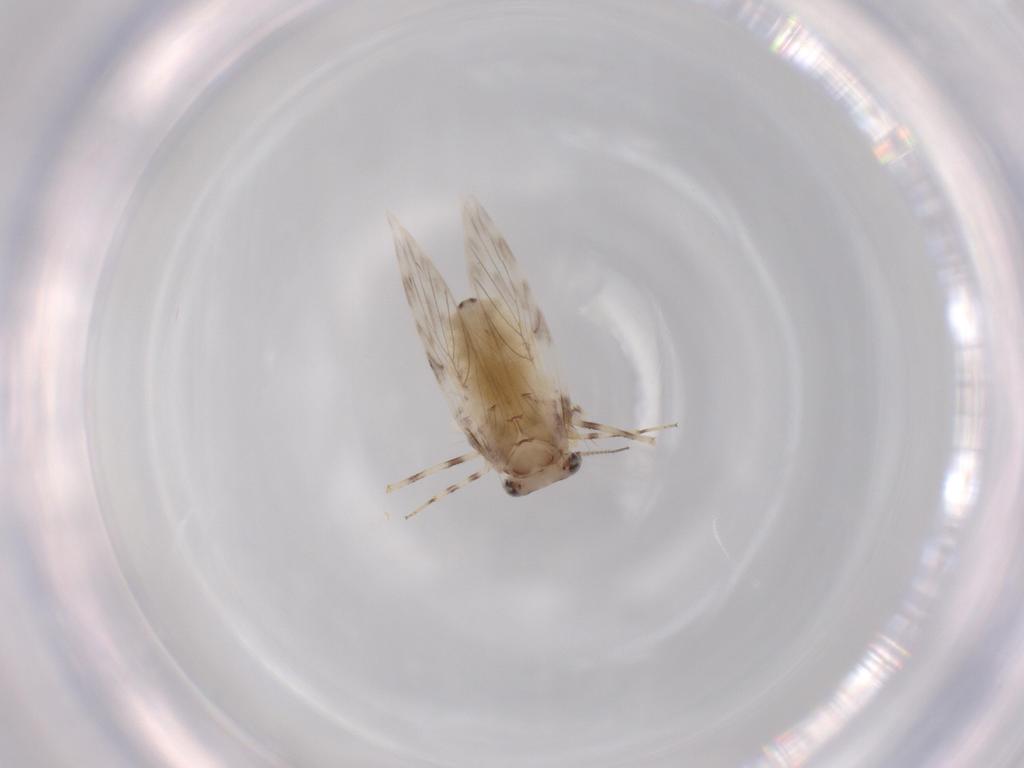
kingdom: Animalia
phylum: Arthropoda
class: Insecta
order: Psocodea
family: Lepidopsocidae
